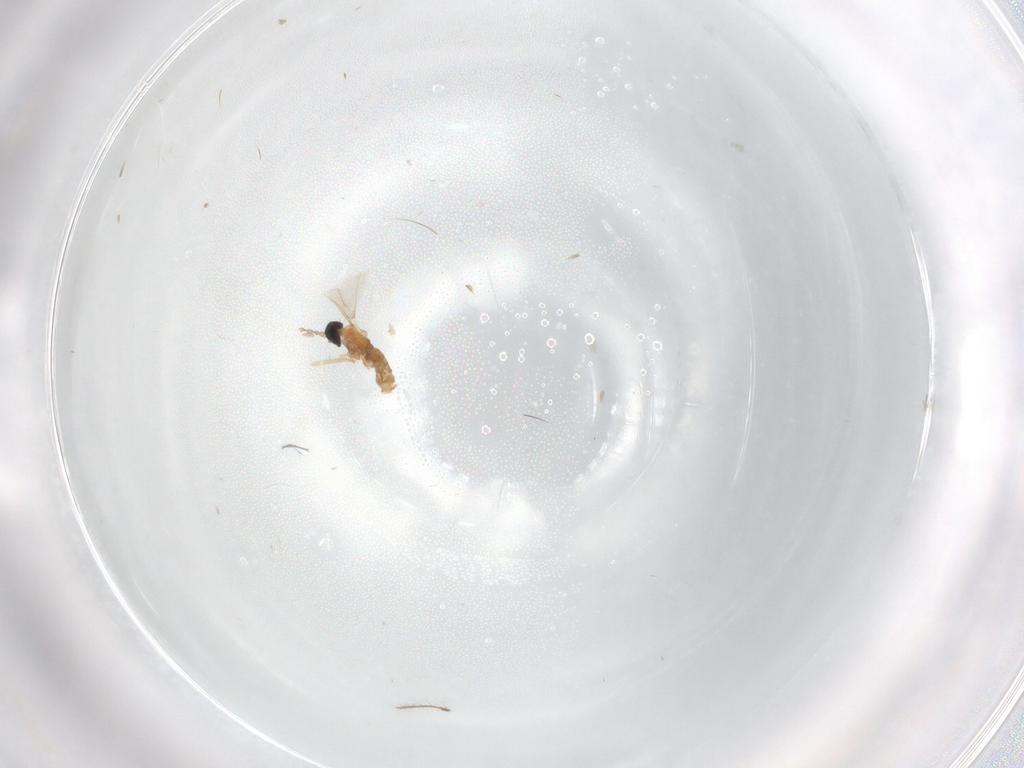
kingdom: Animalia
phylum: Arthropoda
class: Insecta
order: Diptera
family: Cecidomyiidae
